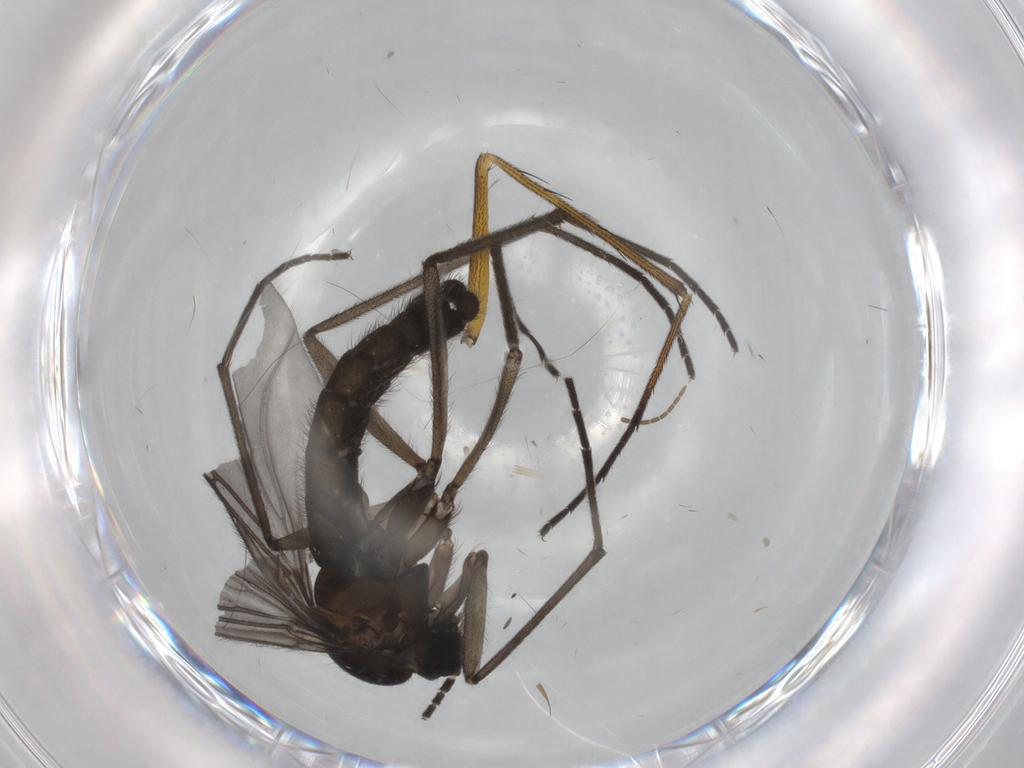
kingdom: Animalia
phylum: Arthropoda
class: Insecta
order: Diptera
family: Sciaridae
